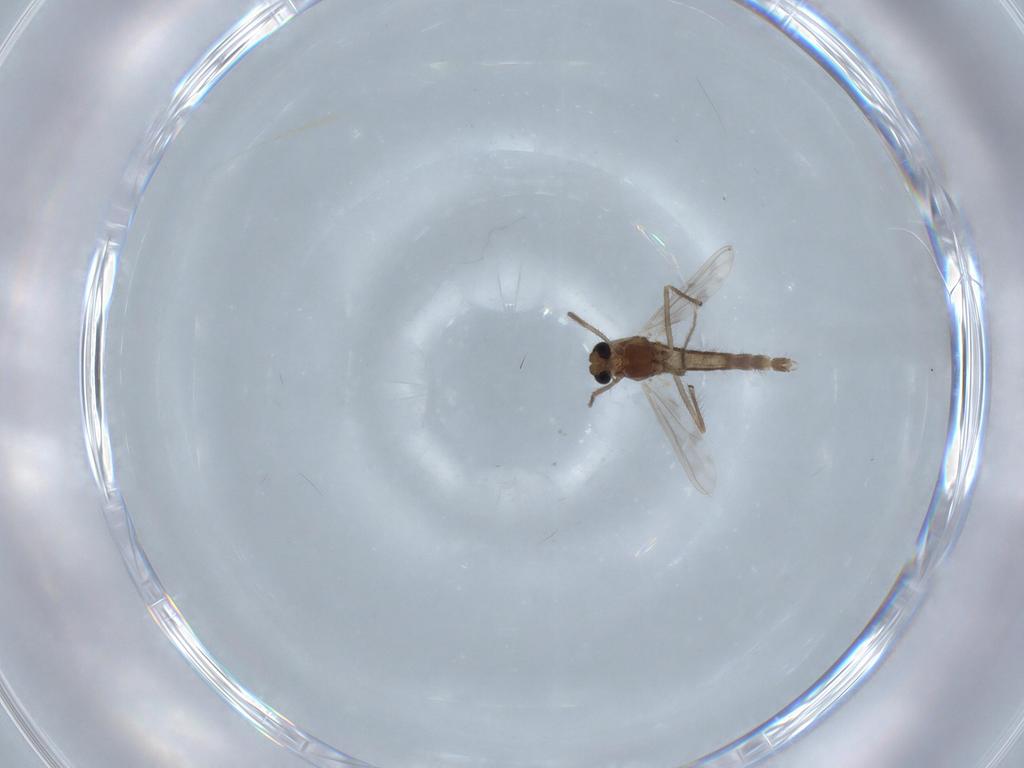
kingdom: Animalia
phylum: Arthropoda
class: Insecta
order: Diptera
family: Chironomidae
